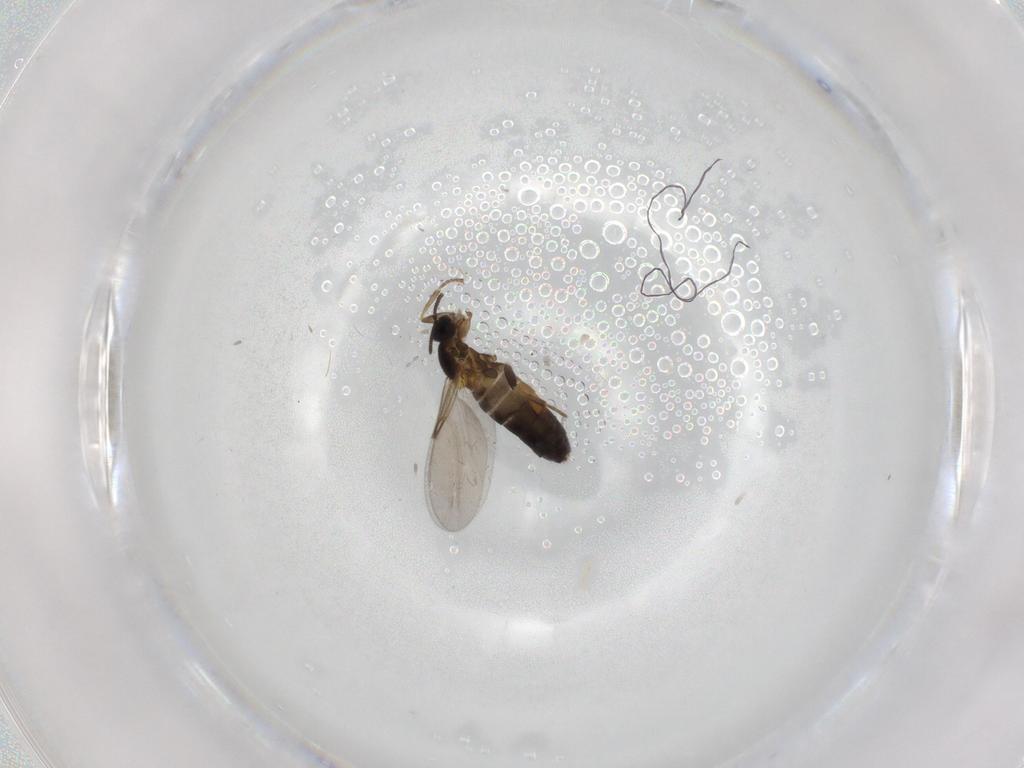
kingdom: Animalia
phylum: Arthropoda
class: Insecta
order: Diptera
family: Scatopsidae
